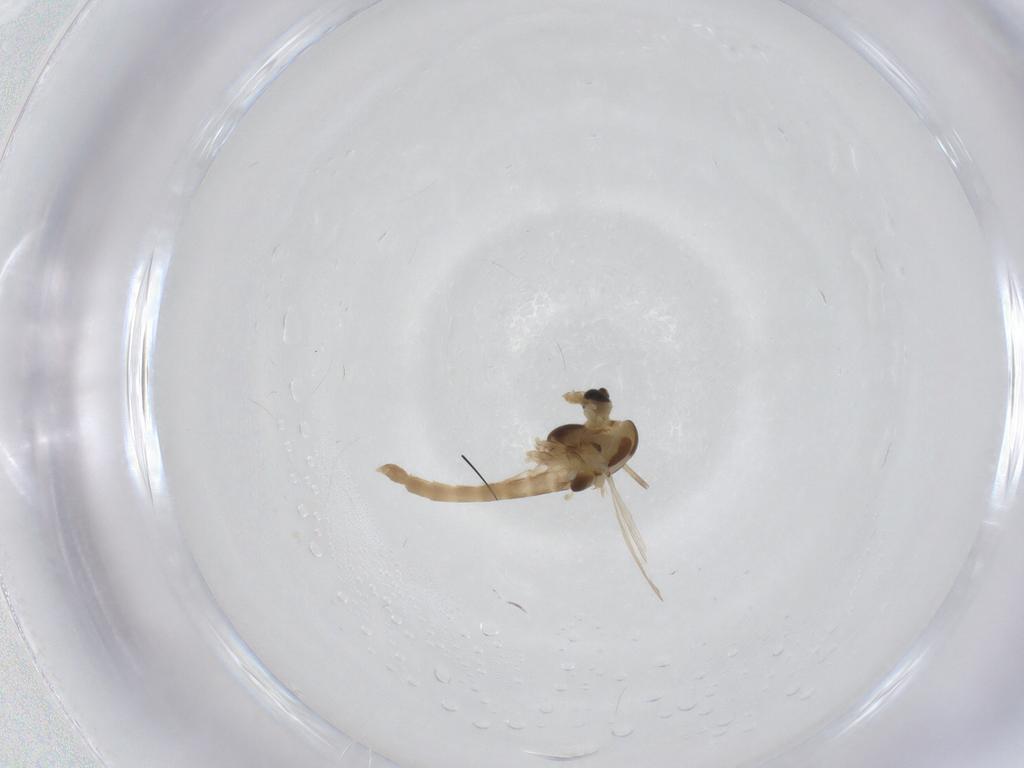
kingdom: Animalia
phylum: Arthropoda
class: Insecta
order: Diptera
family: Chironomidae
